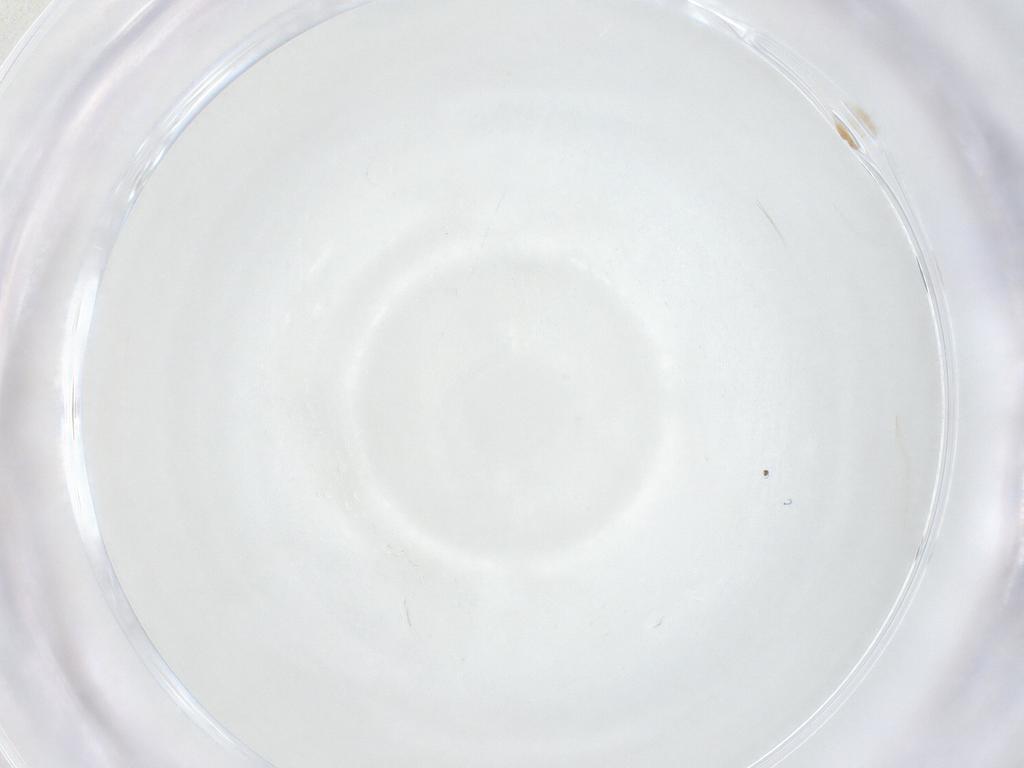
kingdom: Animalia
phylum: Arthropoda
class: Arachnida
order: Trombidiformes
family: Eupodidae
